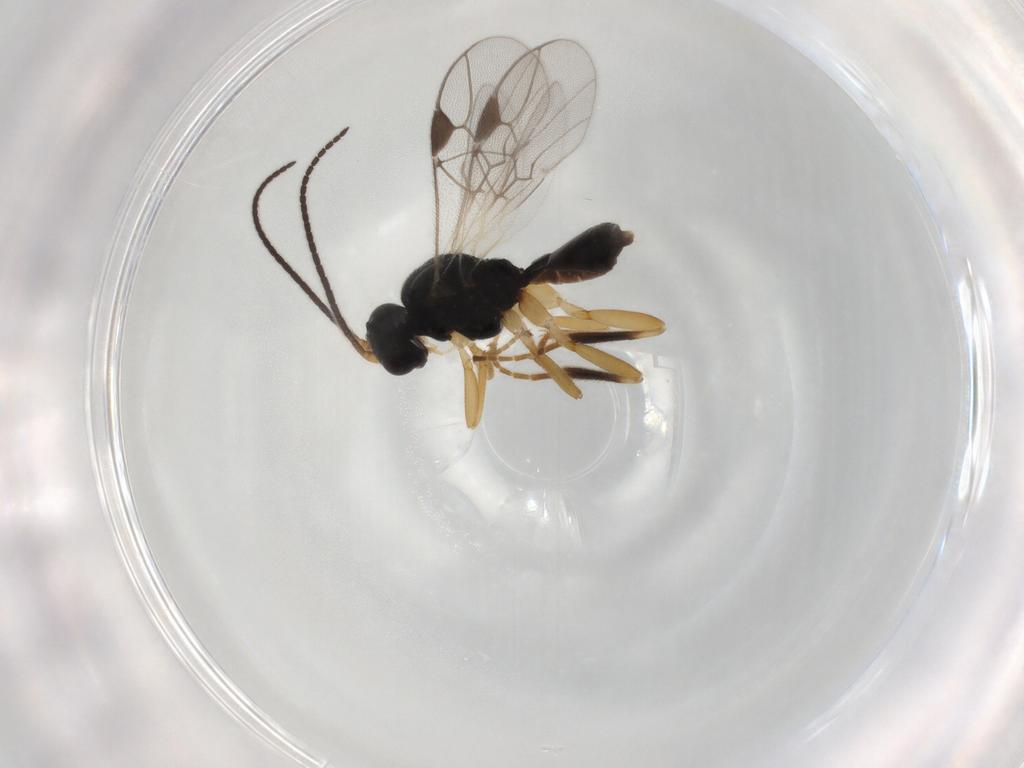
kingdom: Animalia
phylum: Arthropoda
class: Insecta
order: Hymenoptera
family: Braconidae
